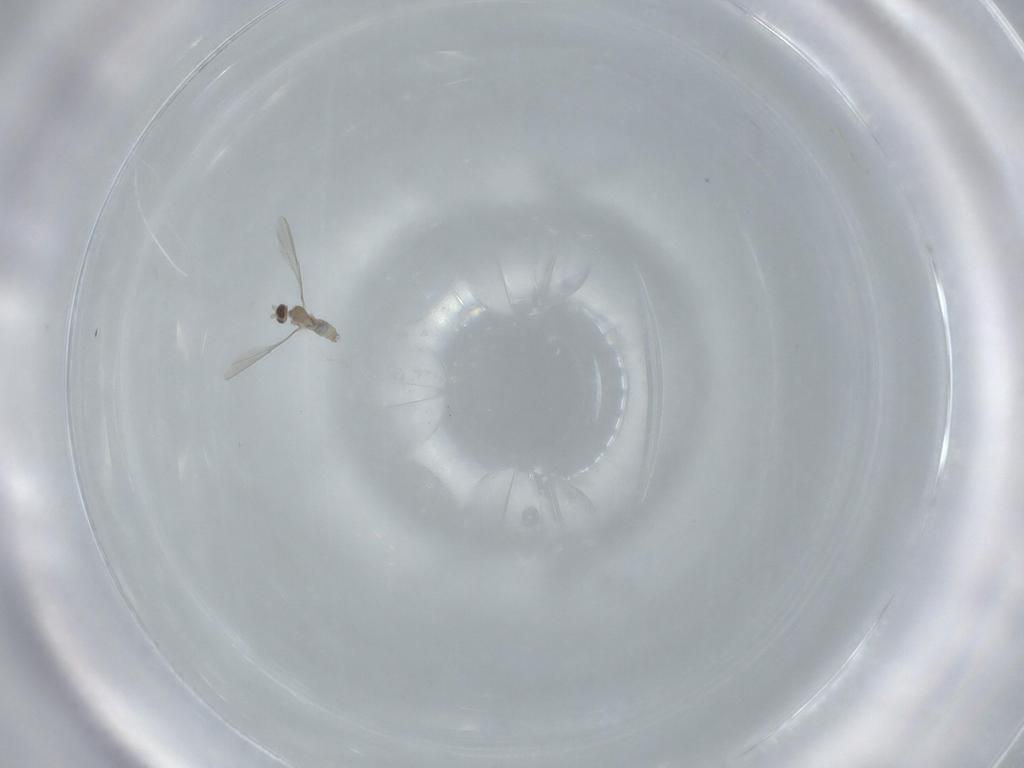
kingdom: Animalia
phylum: Arthropoda
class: Insecta
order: Diptera
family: Cecidomyiidae
